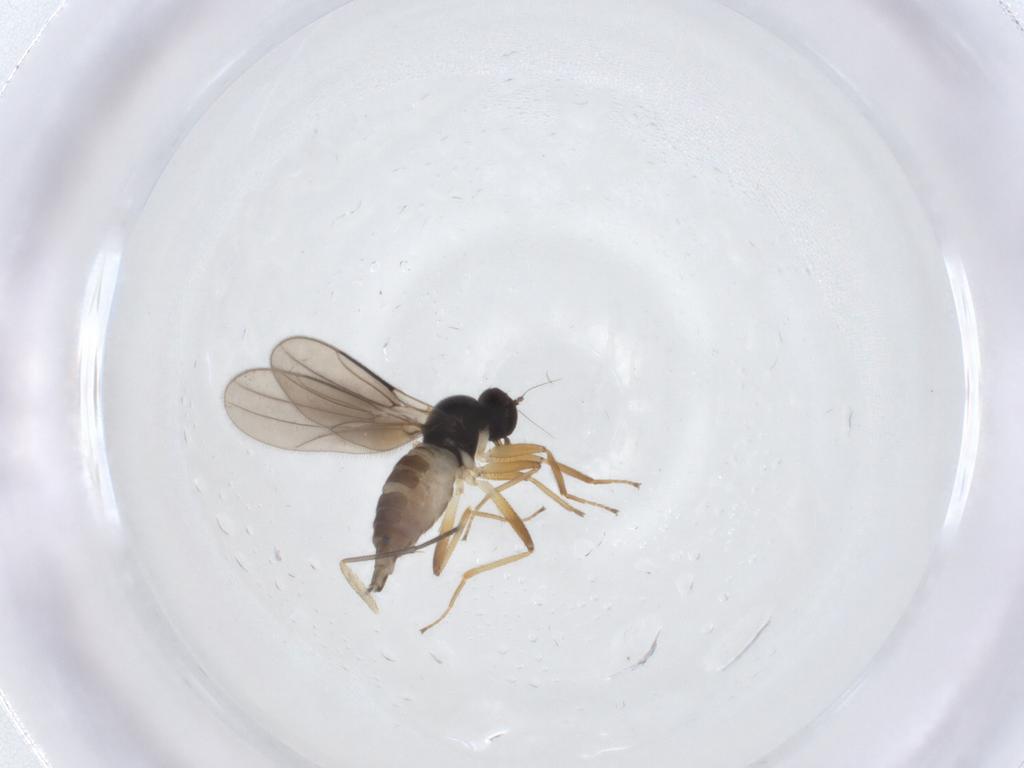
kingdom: Animalia
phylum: Arthropoda
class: Insecta
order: Diptera
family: Hybotidae
